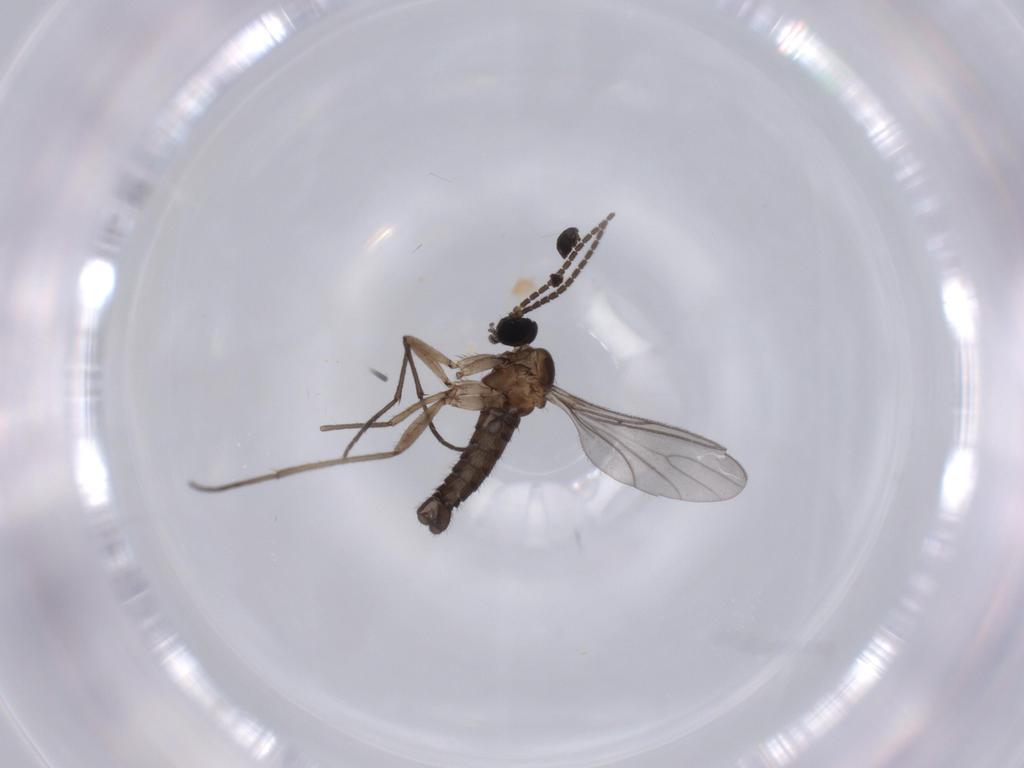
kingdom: Animalia
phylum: Arthropoda
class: Insecta
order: Diptera
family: Sciaridae
